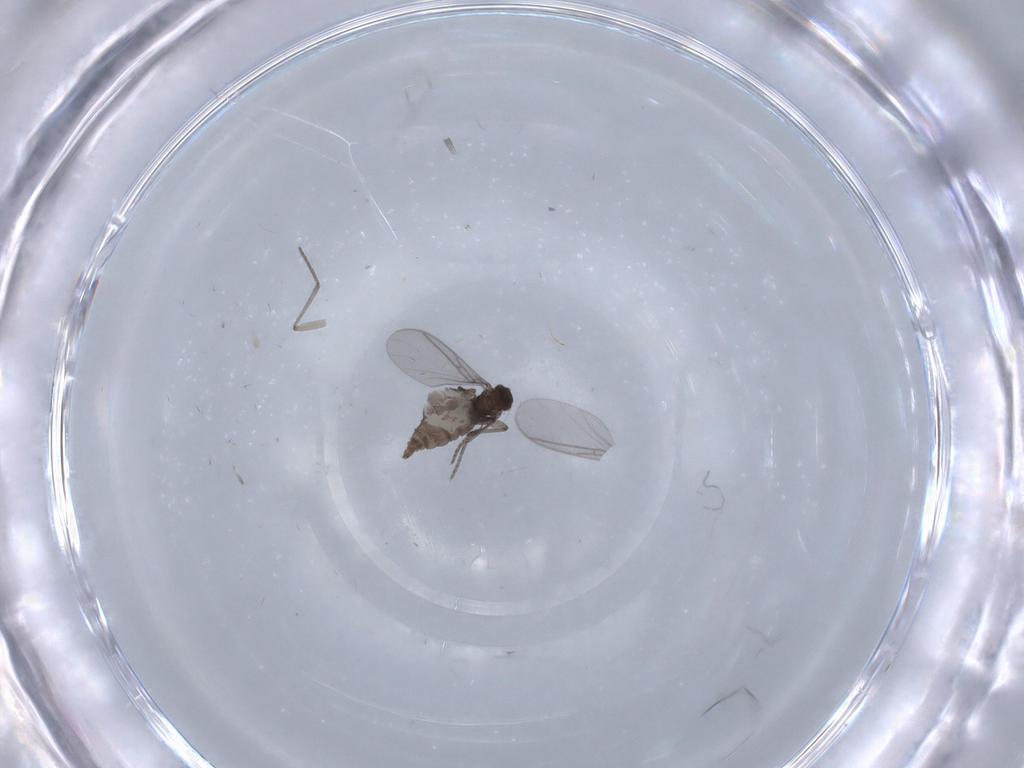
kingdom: Animalia
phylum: Arthropoda
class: Insecta
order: Diptera
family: Sciaridae
